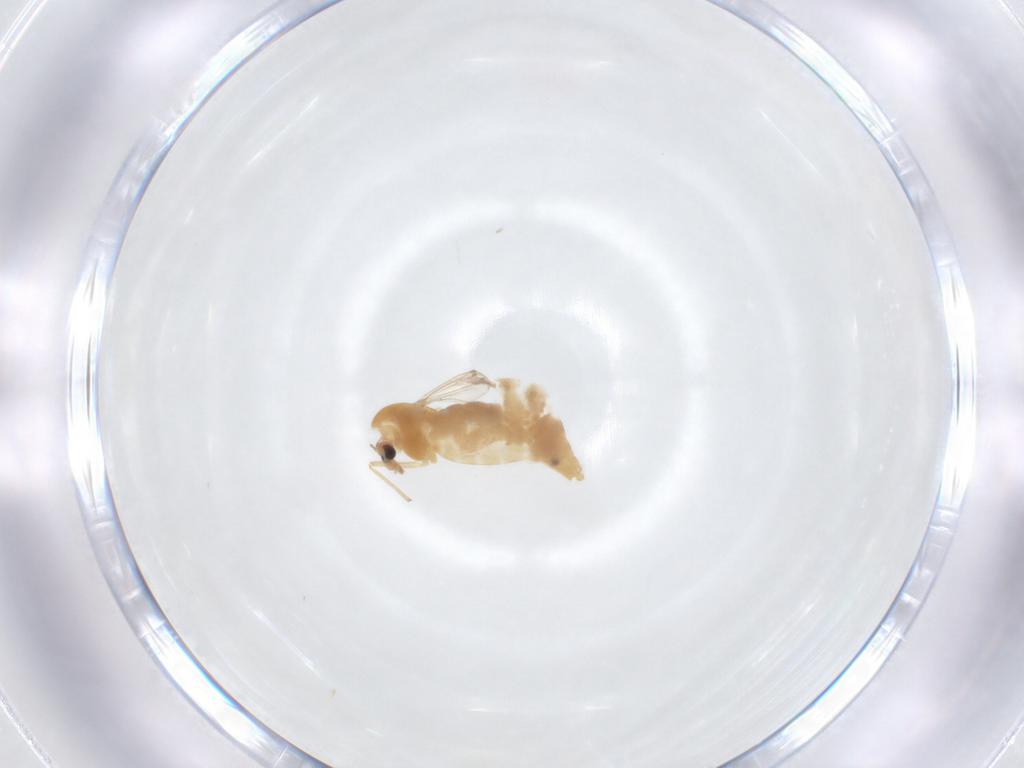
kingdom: Animalia
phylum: Arthropoda
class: Insecta
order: Diptera
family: Chironomidae
